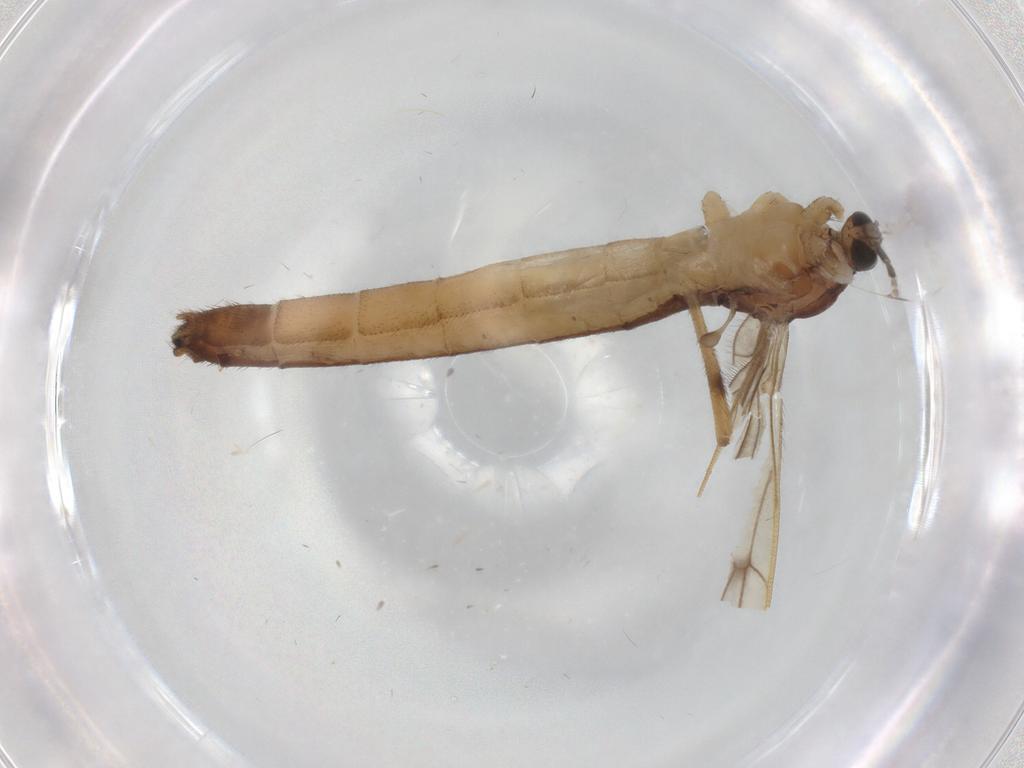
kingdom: Animalia
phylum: Arthropoda
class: Insecta
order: Diptera
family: Limoniidae
